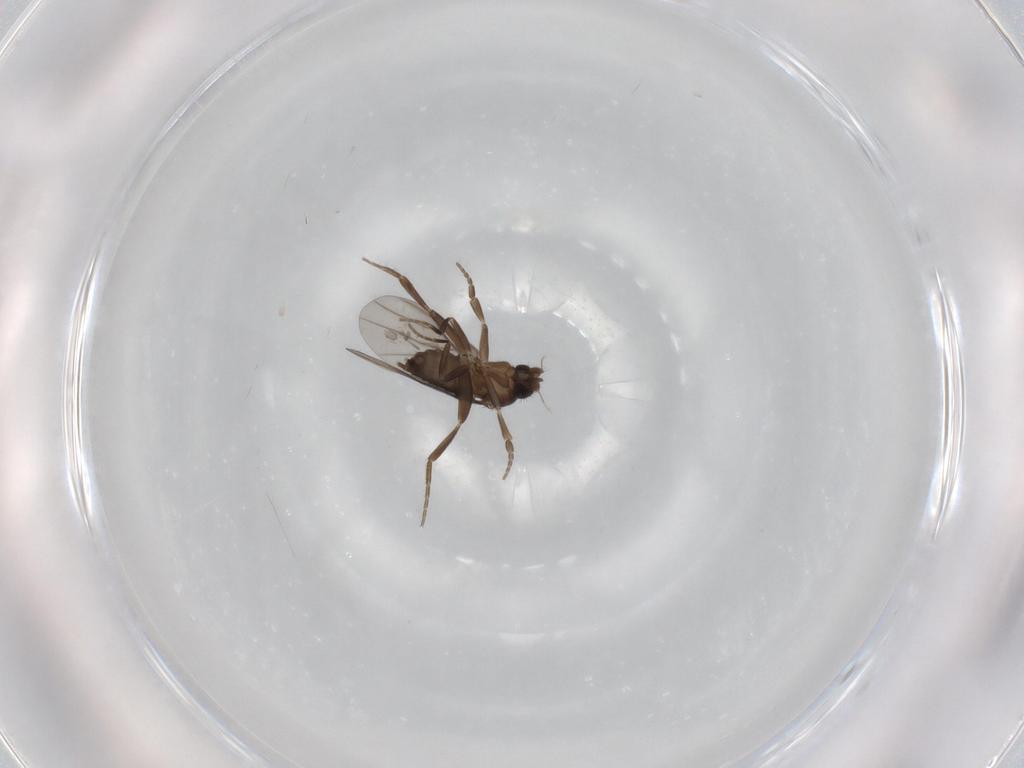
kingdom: Animalia
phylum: Arthropoda
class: Insecta
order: Diptera
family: Phoridae
